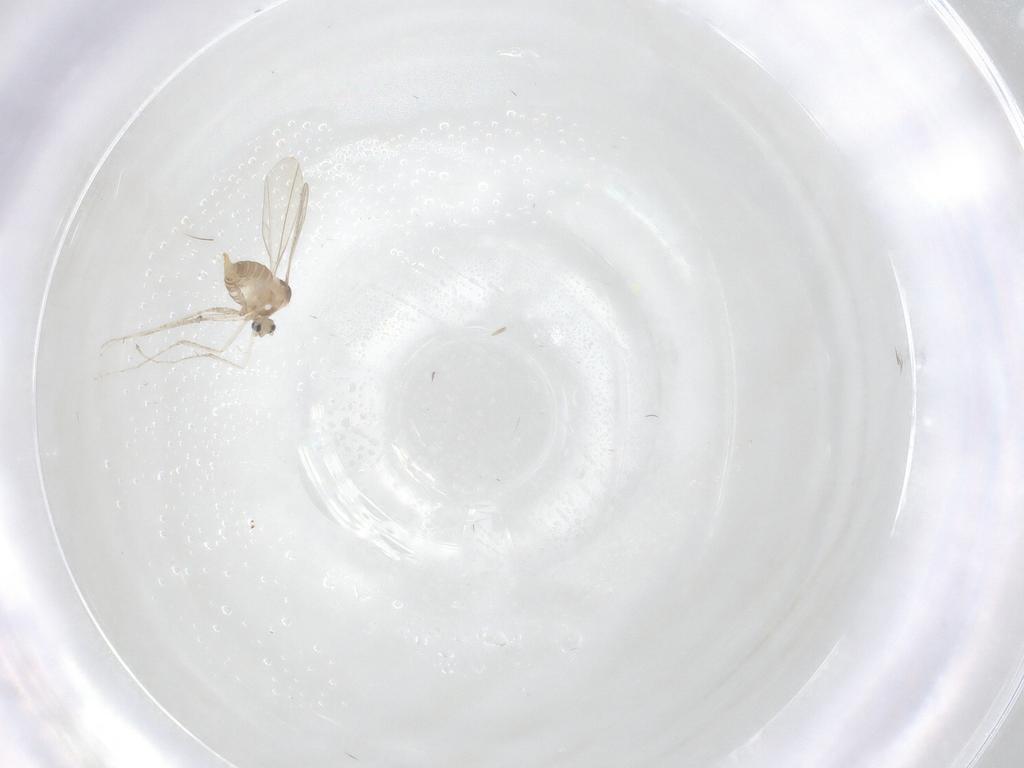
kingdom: Animalia
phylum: Arthropoda
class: Insecta
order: Diptera
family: Cecidomyiidae
